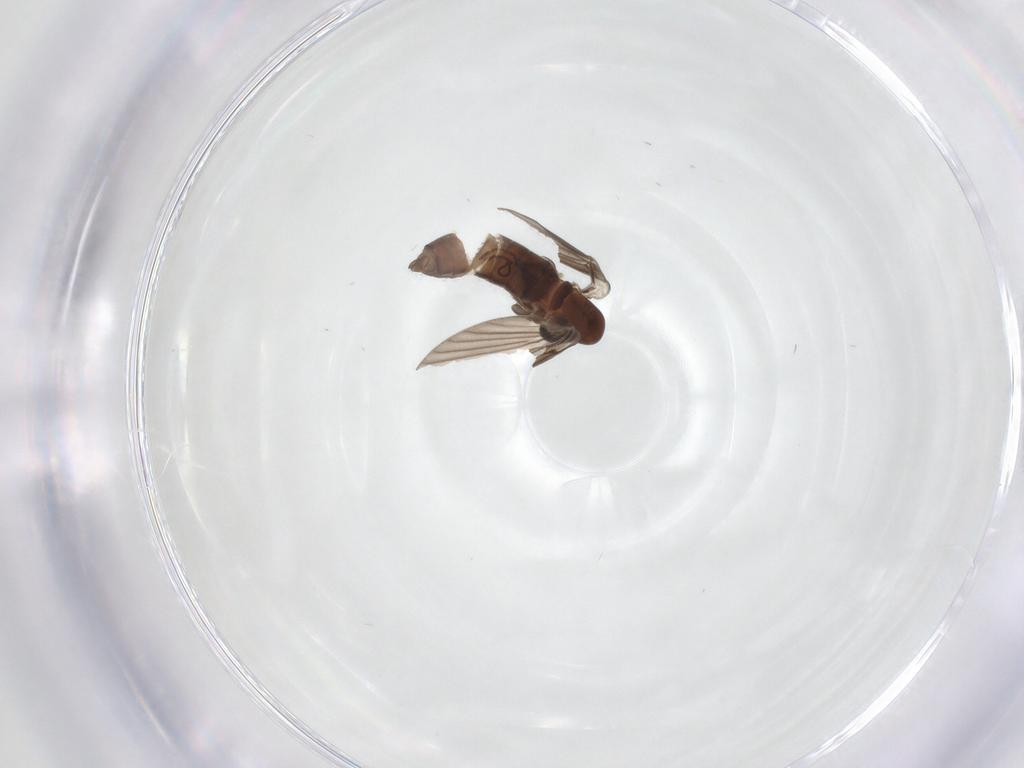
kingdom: Animalia
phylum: Arthropoda
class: Insecta
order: Diptera
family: Psychodidae
